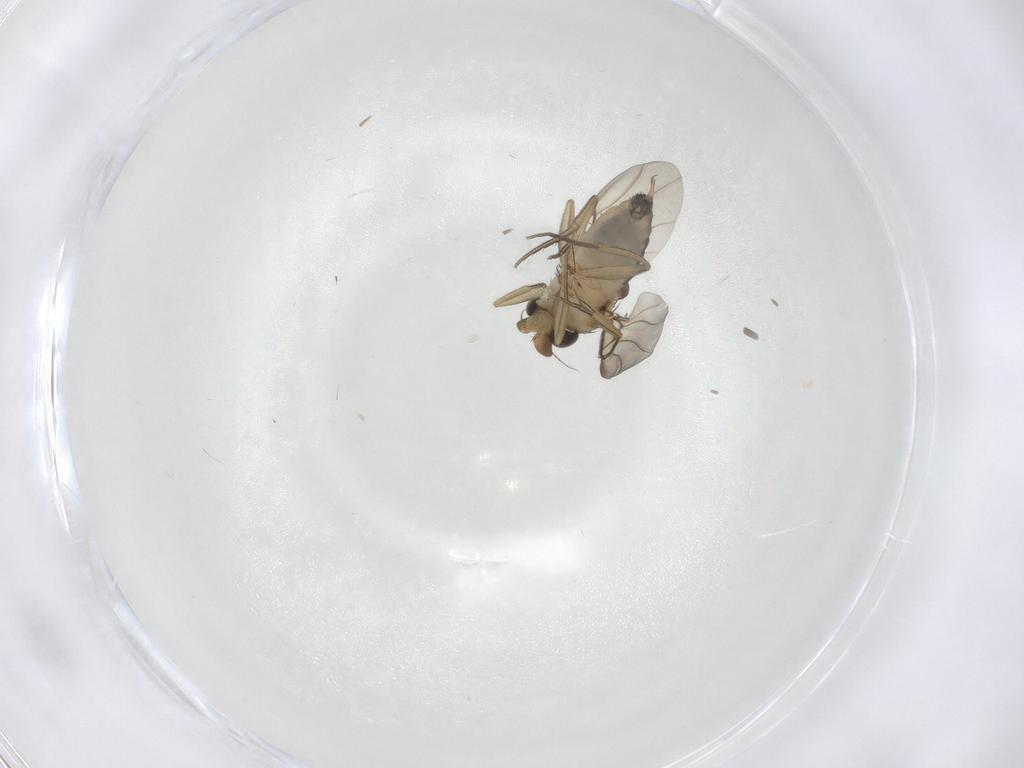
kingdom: Animalia
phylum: Arthropoda
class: Insecta
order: Diptera
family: Phoridae
